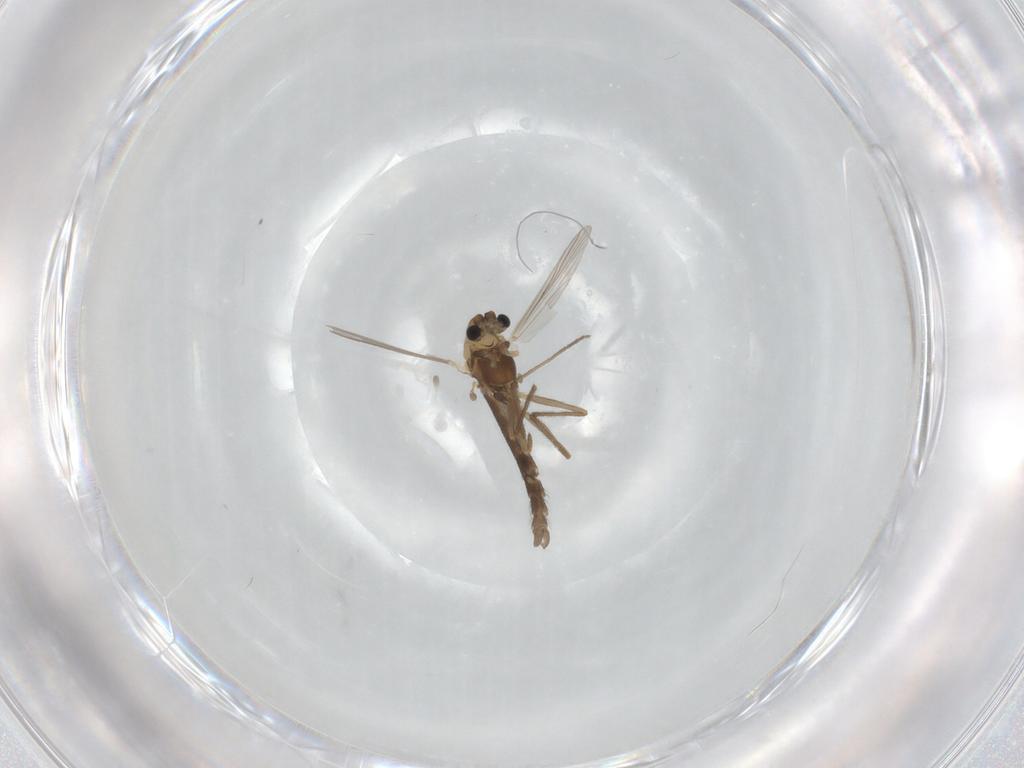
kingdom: Animalia
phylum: Arthropoda
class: Insecta
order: Diptera
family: Chironomidae
